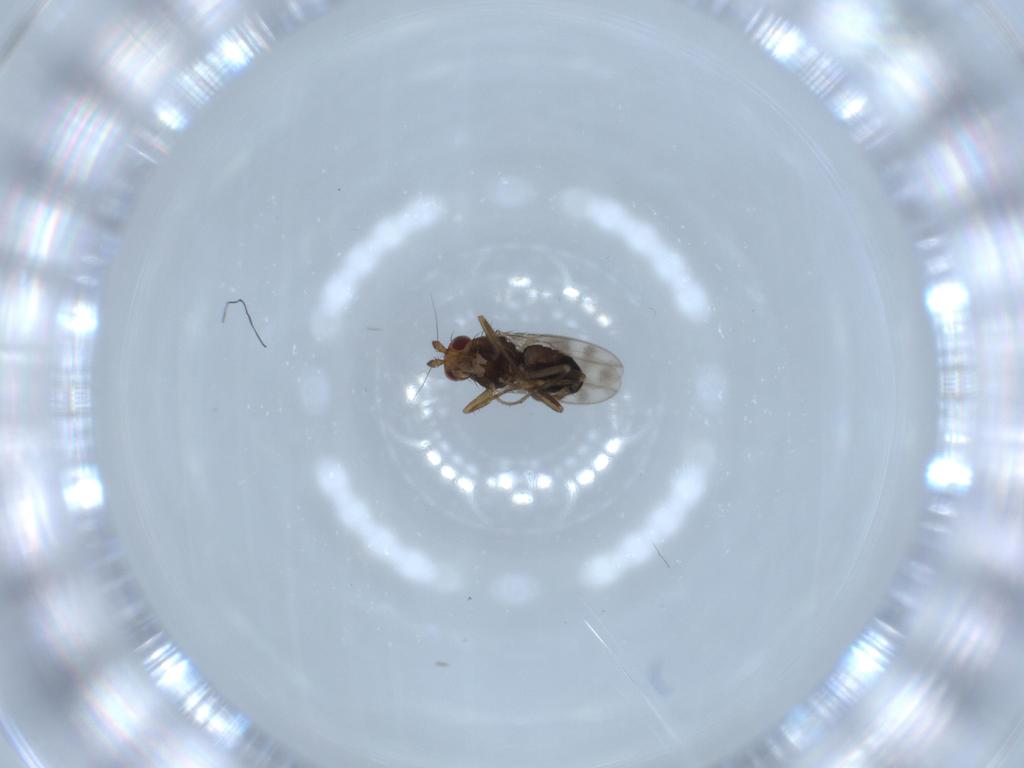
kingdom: Animalia
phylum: Arthropoda
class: Insecta
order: Diptera
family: Sphaeroceridae
